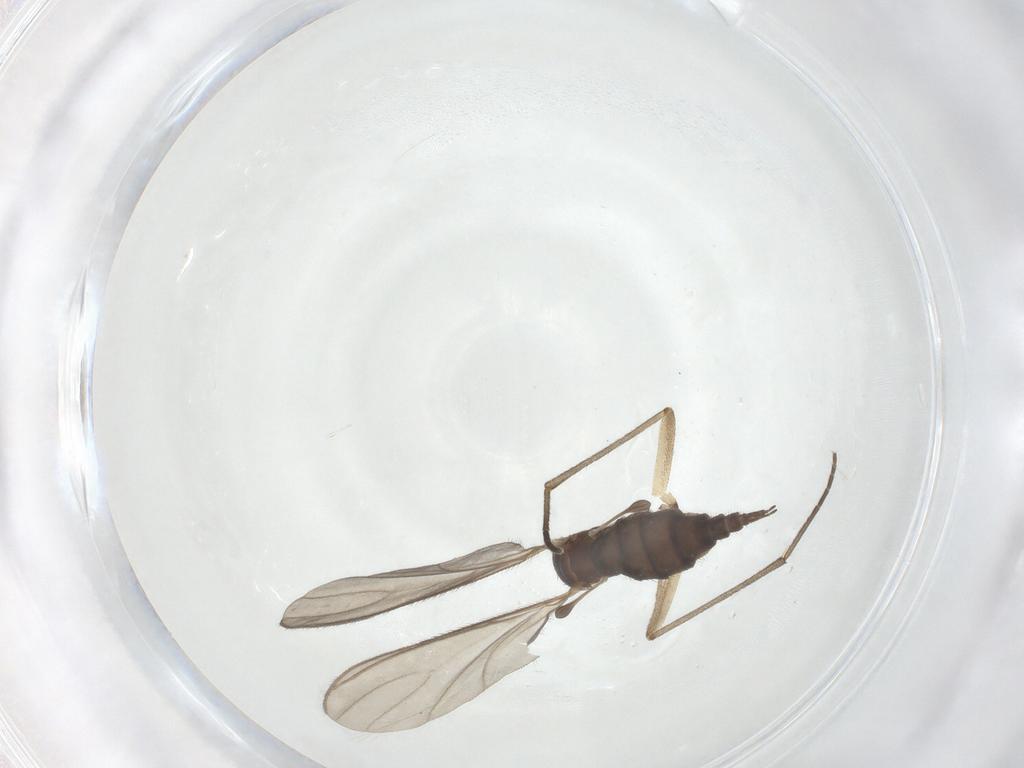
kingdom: Animalia
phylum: Arthropoda
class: Insecta
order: Diptera
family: Sciaridae
